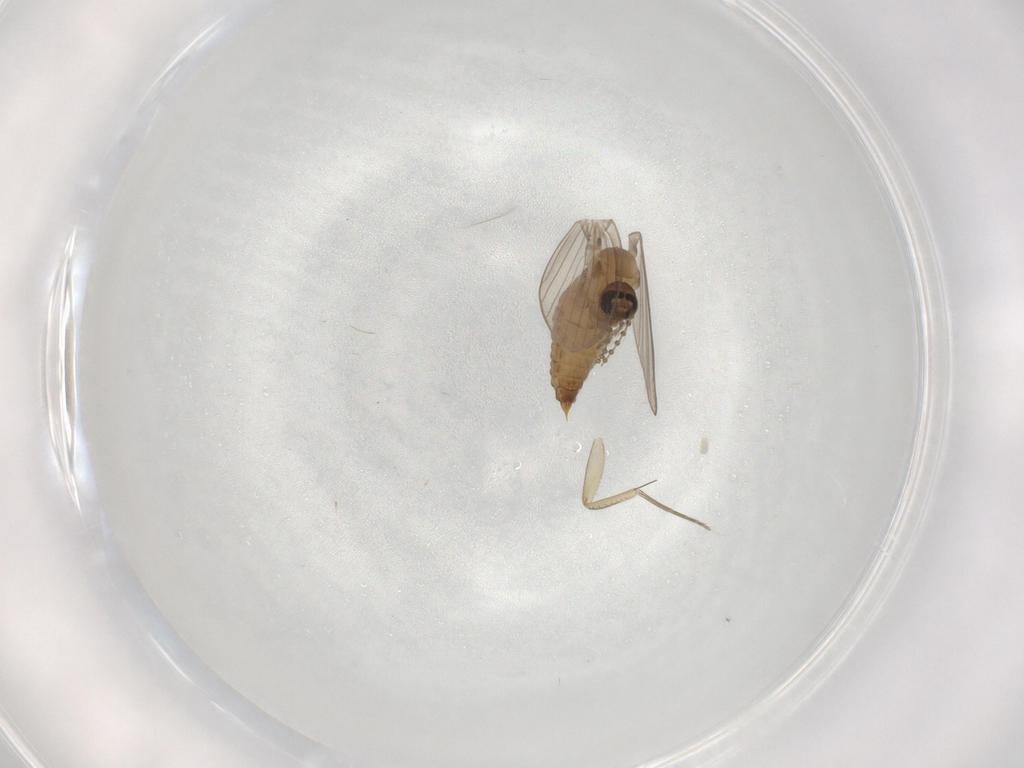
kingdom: Animalia
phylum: Arthropoda
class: Insecta
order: Diptera
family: Psychodidae
